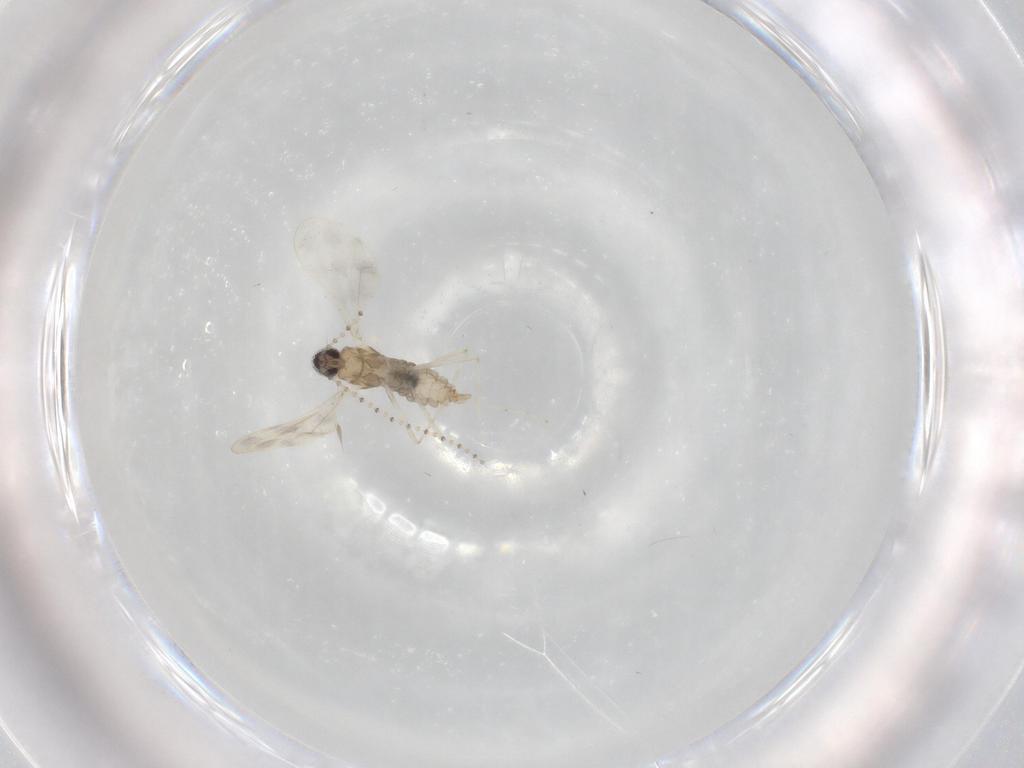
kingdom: Animalia
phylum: Arthropoda
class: Insecta
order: Diptera
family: Cecidomyiidae
